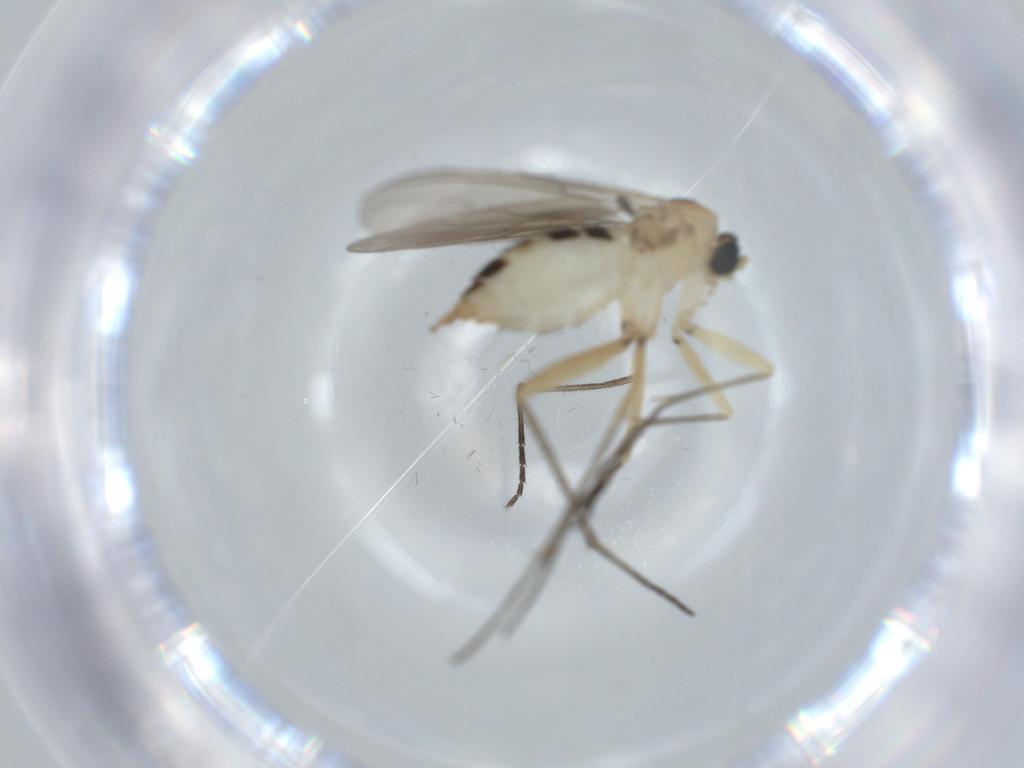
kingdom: Animalia
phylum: Arthropoda
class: Insecta
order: Diptera
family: Sciaridae
